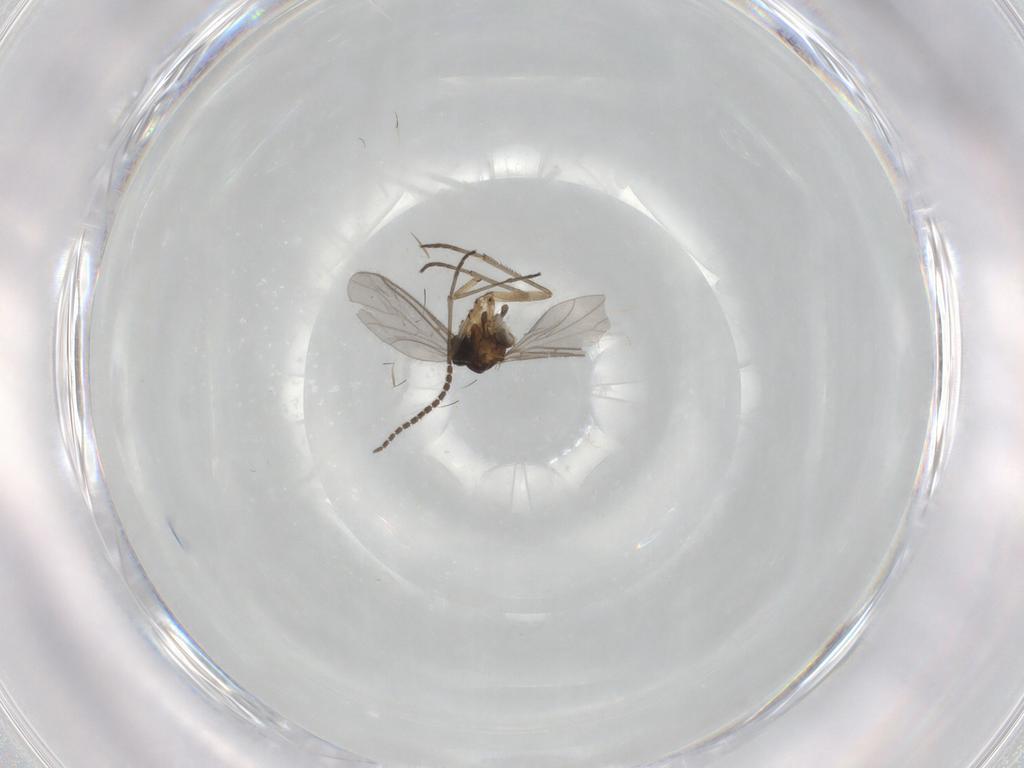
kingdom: Animalia
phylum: Arthropoda
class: Insecta
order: Diptera
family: Sciaridae
